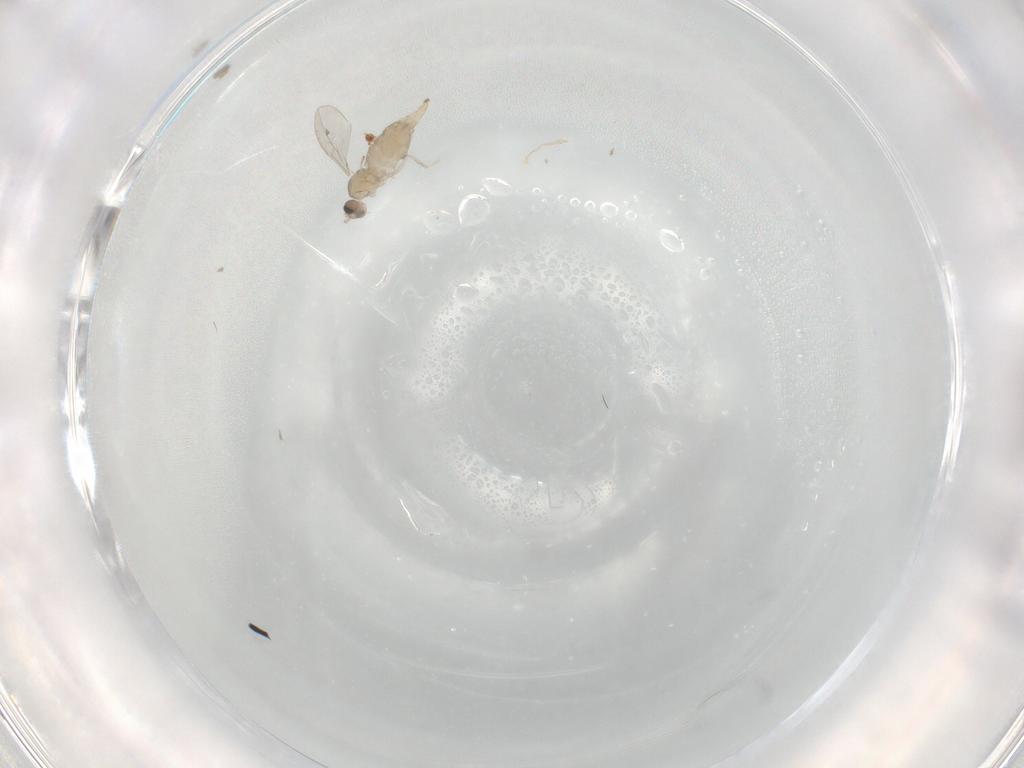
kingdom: Animalia
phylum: Arthropoda
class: Insecta
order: Diptera
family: Cecidomyiidae
